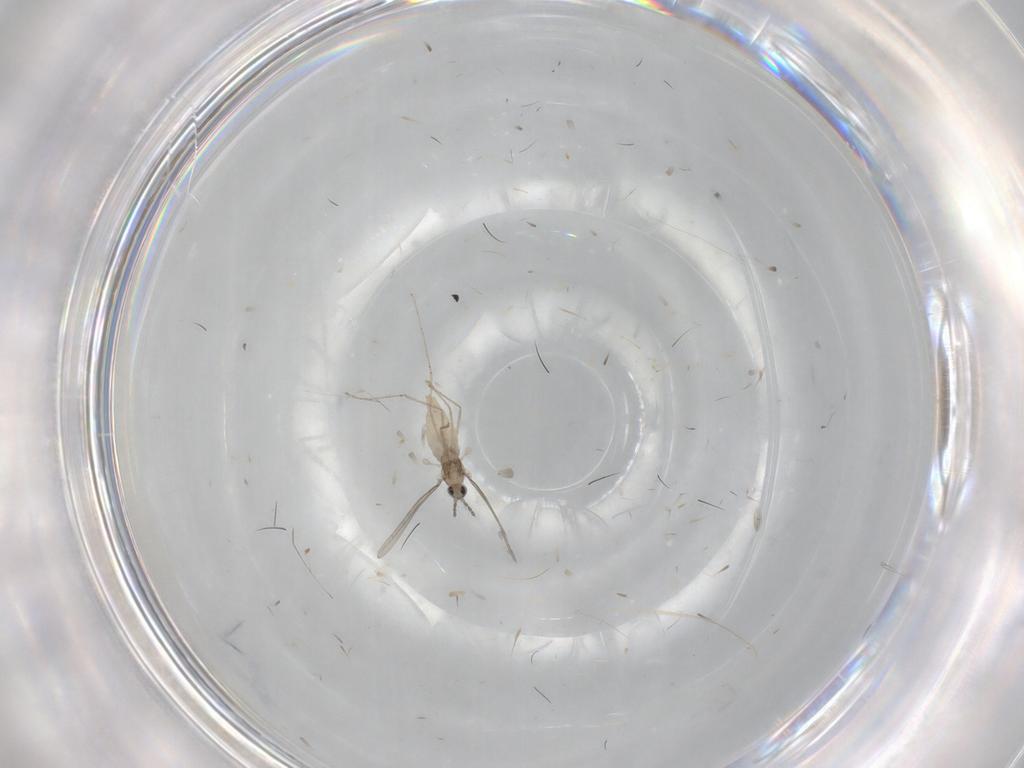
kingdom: Animalia
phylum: Arthropoda
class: Insecta
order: Diptera
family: Cecidomyiidae
